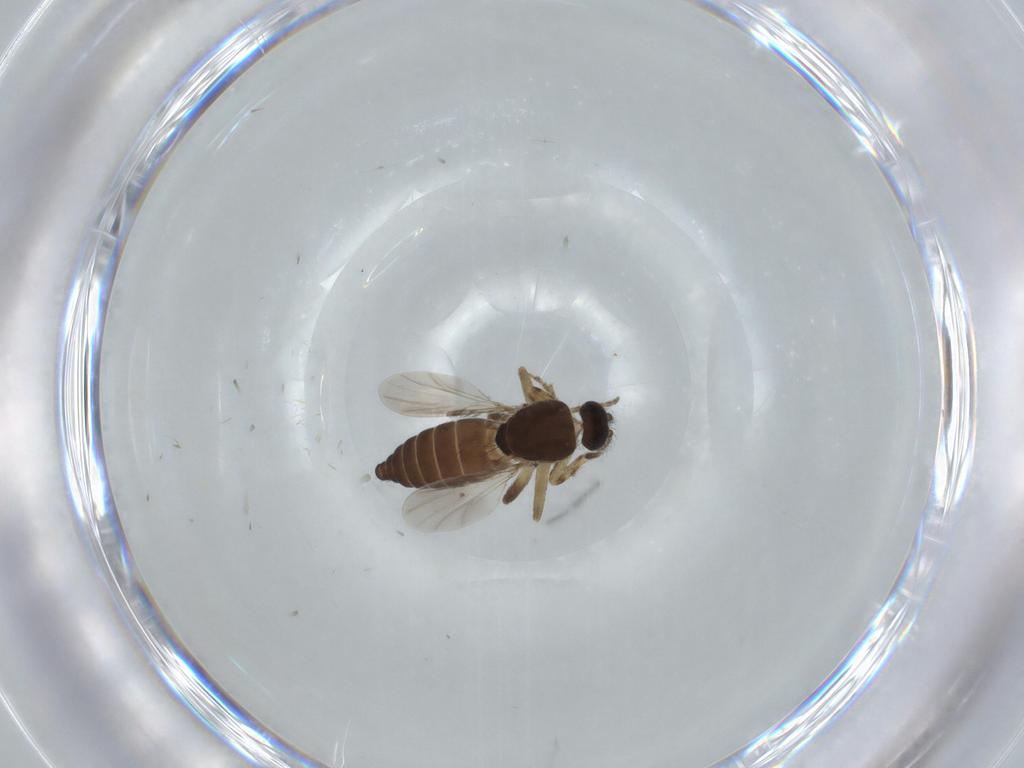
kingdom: Animalia
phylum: Arthropoda
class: Insecta
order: Diptera
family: Ceratopogonidae
